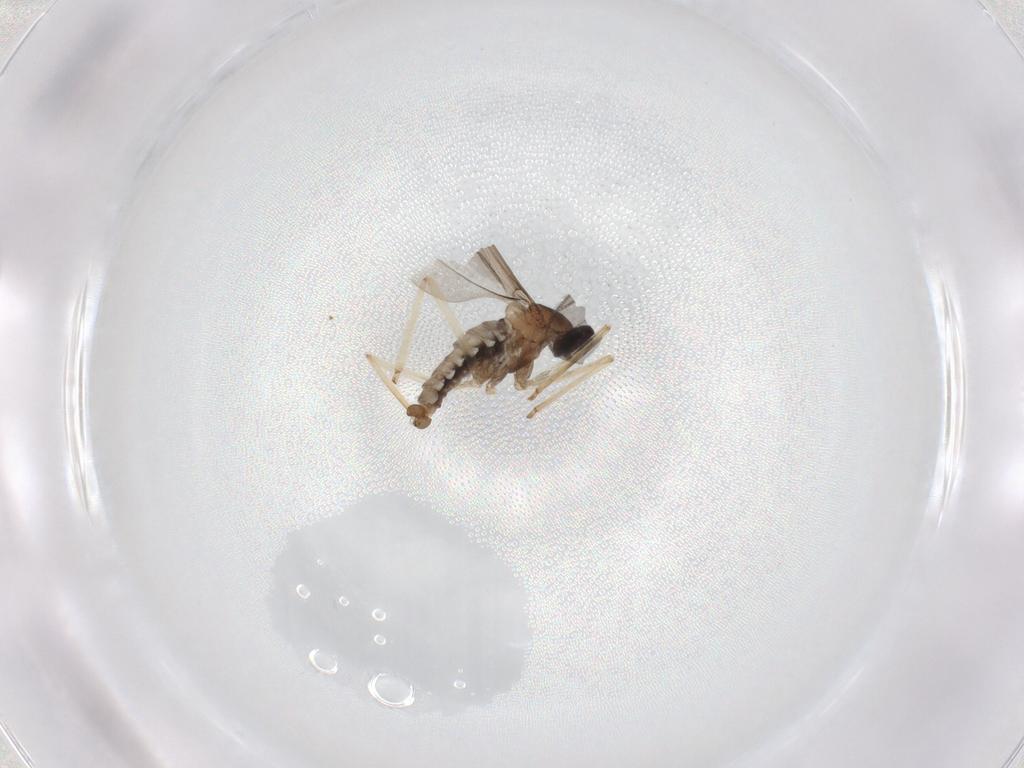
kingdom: Animalia
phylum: Arthropoda
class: Insecta
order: Diptera
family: Cecidomyiidae
